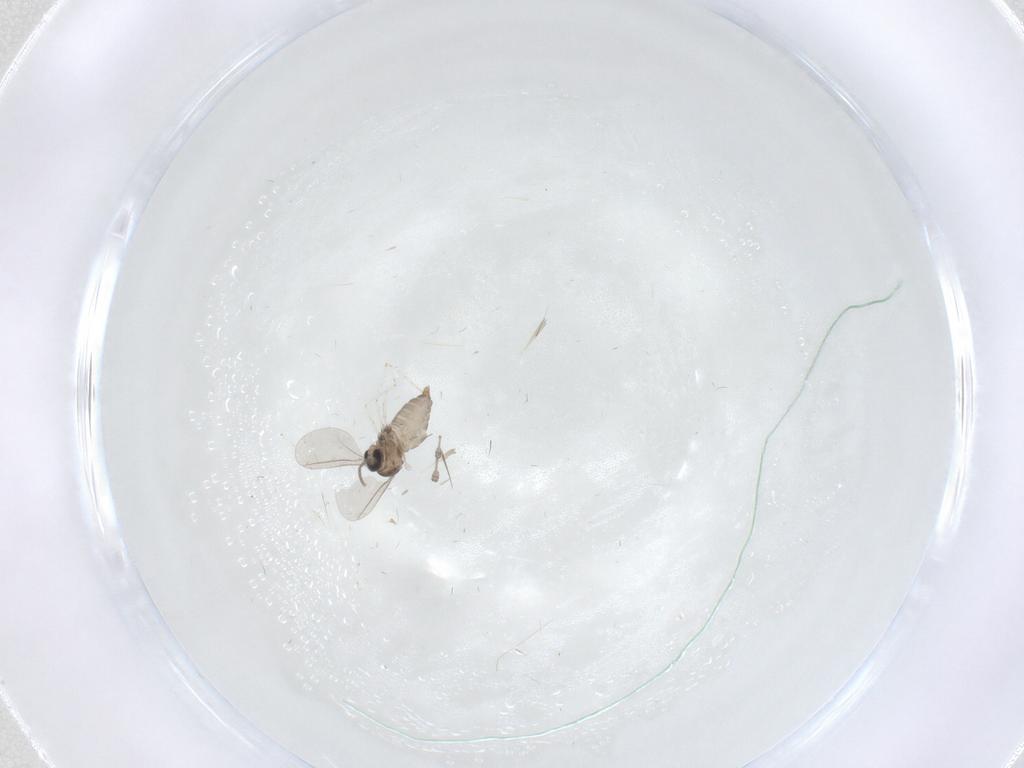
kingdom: Animalia
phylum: Arthropoda
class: Insecta
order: Diptera
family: Cecidomyiidae
